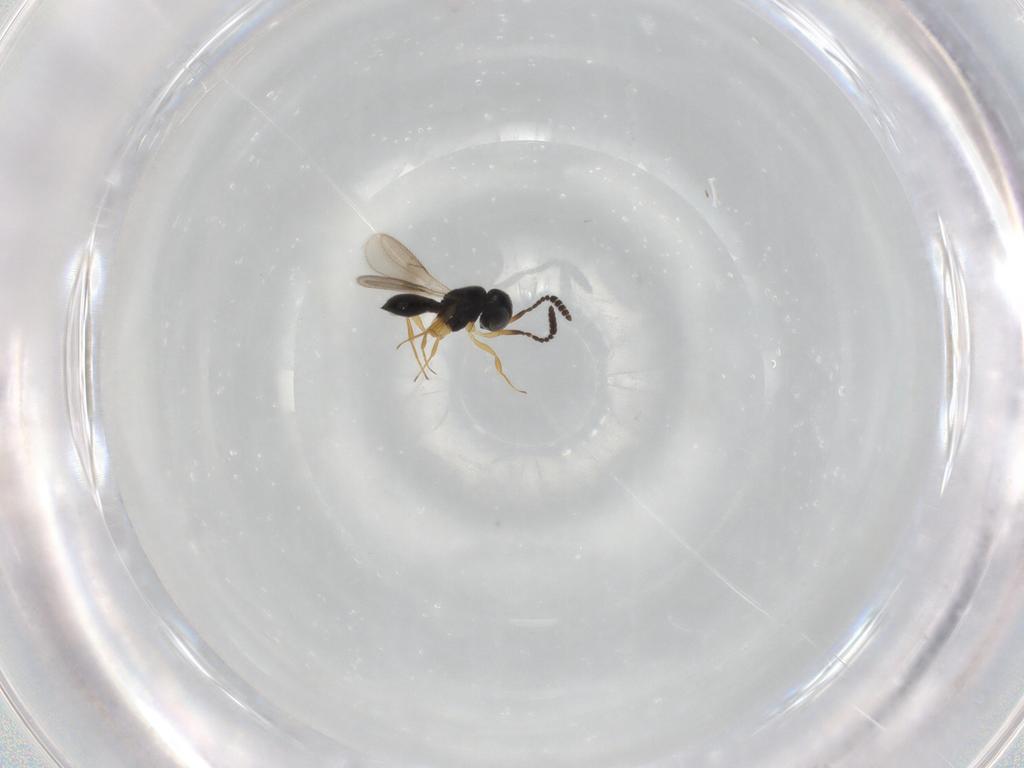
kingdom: Animalia
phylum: Arthropoda
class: Insecta
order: Hymenoptera
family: Scelionidae
